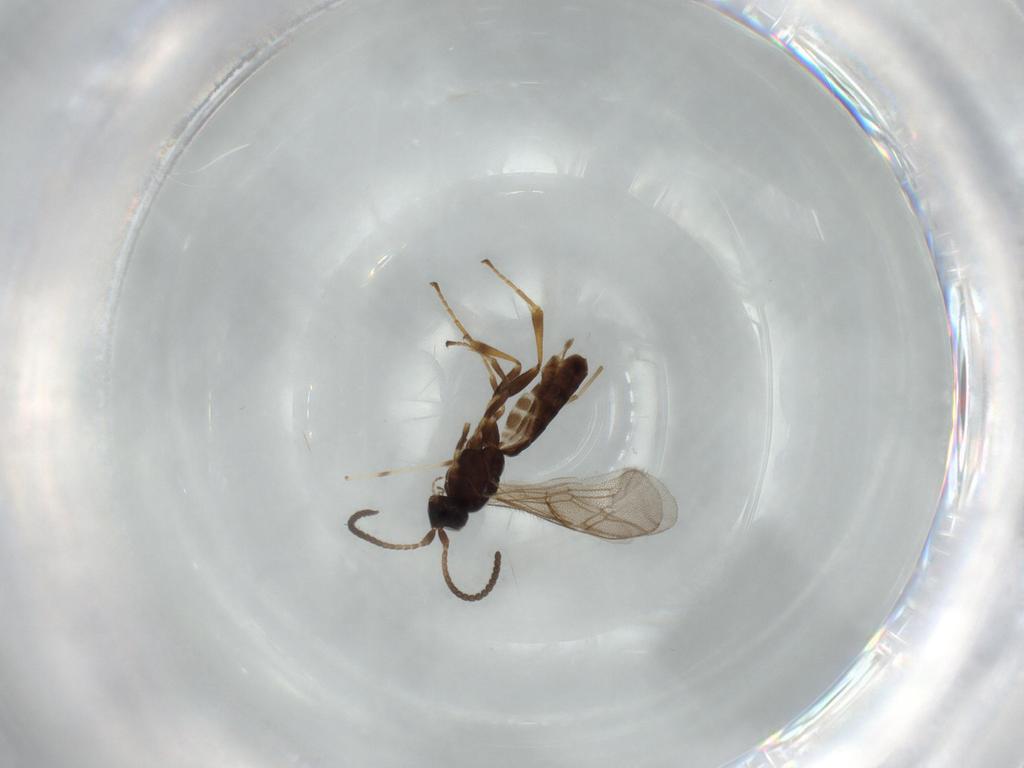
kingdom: Animalia
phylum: Arthropoda
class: Insecta
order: Hymenoptera
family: Ichneumonidae
